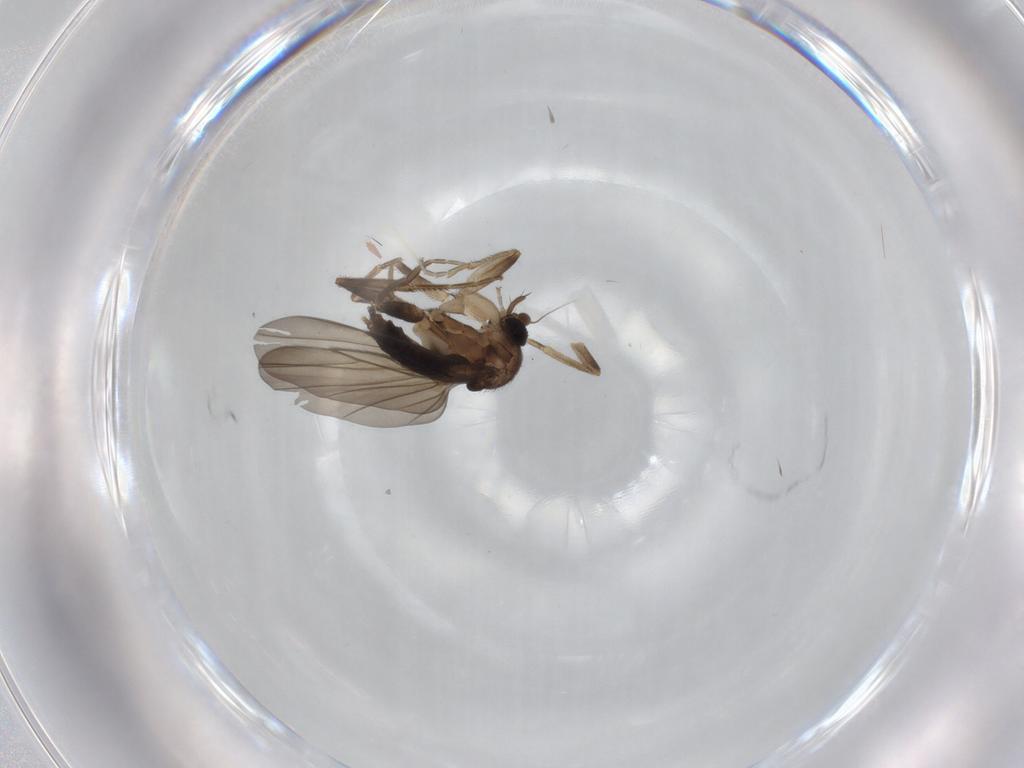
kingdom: Animalia
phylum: Arthropoda
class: Insecta
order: Diptera
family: Phoridae
